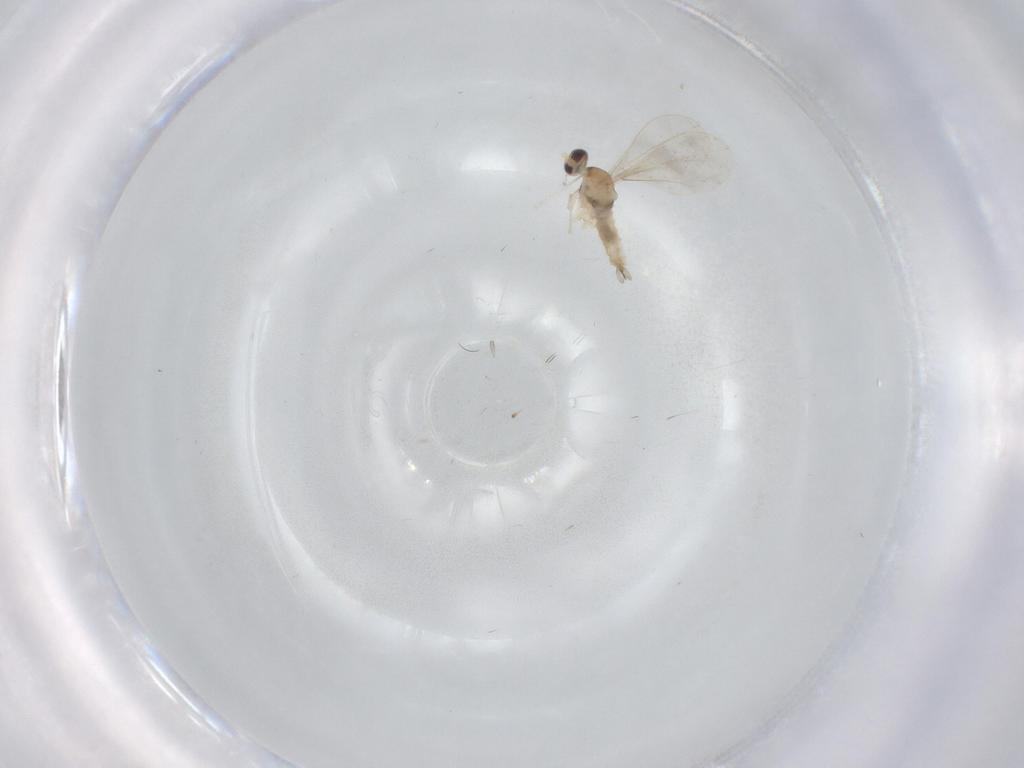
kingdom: Animalia
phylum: Arthropoda
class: Insecta
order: Diptera
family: Cecidomyiidae
